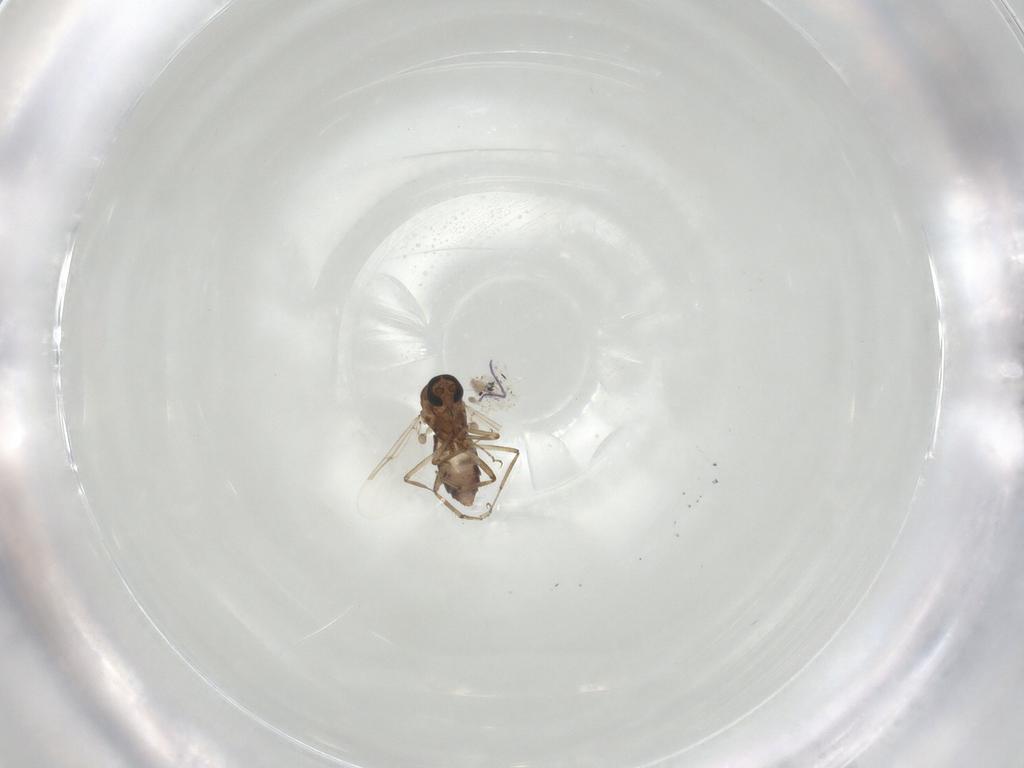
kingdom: Animalia
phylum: Arthropoda
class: Insecta
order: Diptera
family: Ceratopogonidae
